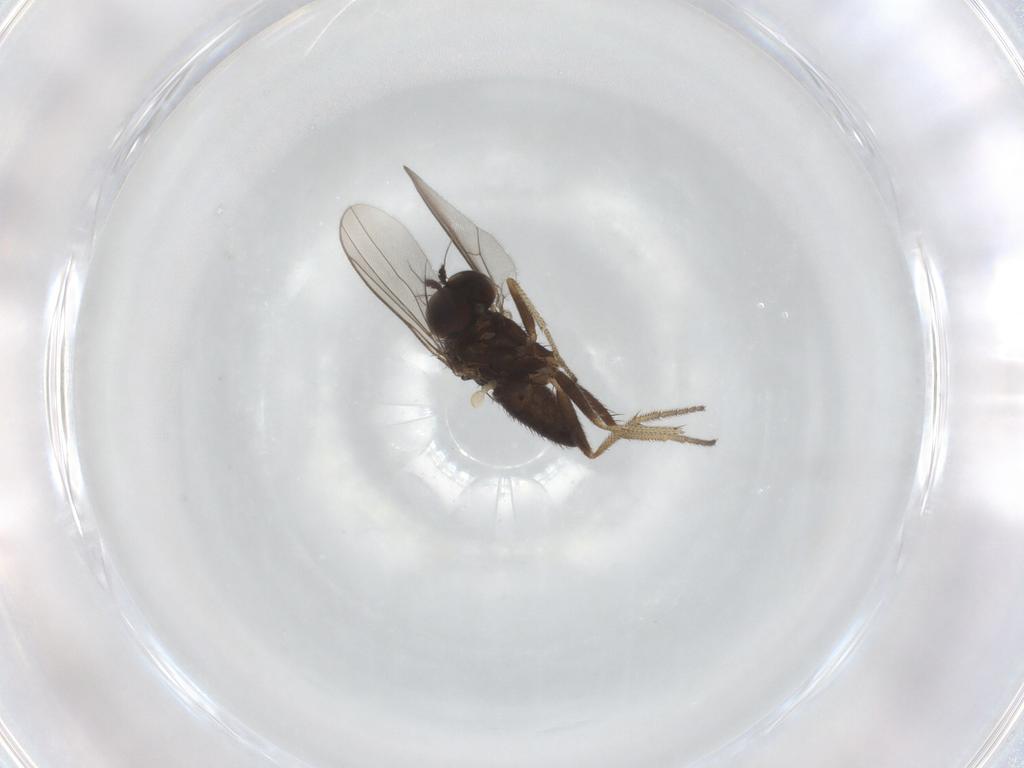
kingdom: Animalia
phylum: Arthropoda
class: Insecta
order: Diptera
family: Dolichopodidae
